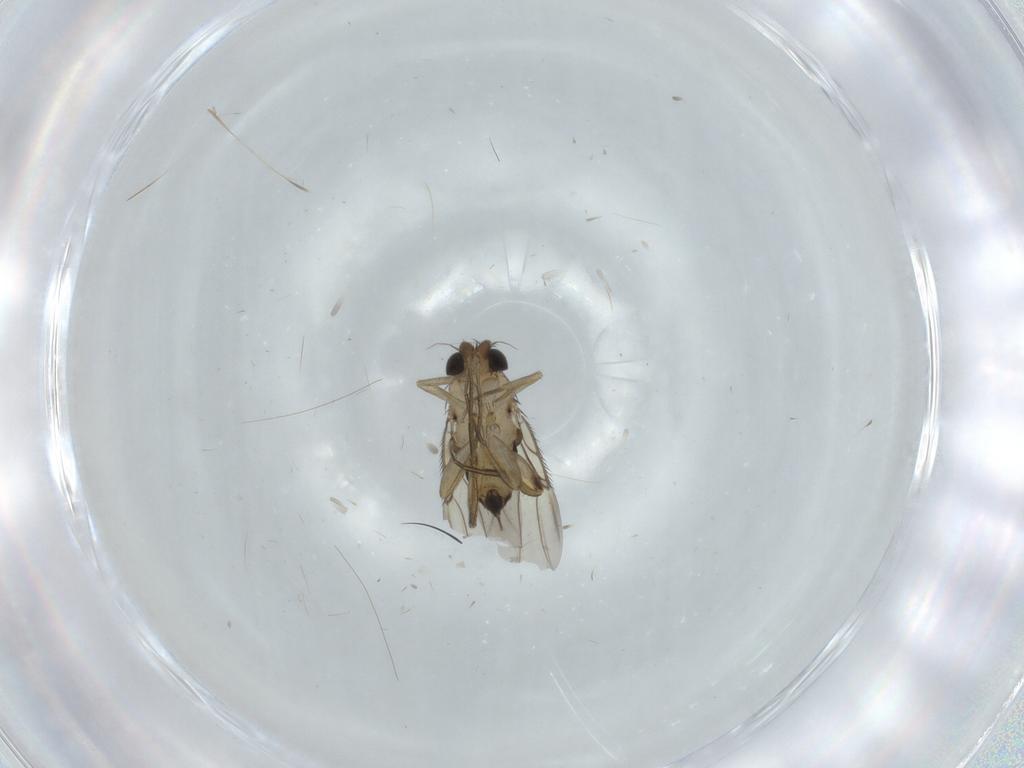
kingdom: Animalia
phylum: Arthropoda
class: Insecta
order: Diptera
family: Phoridae
